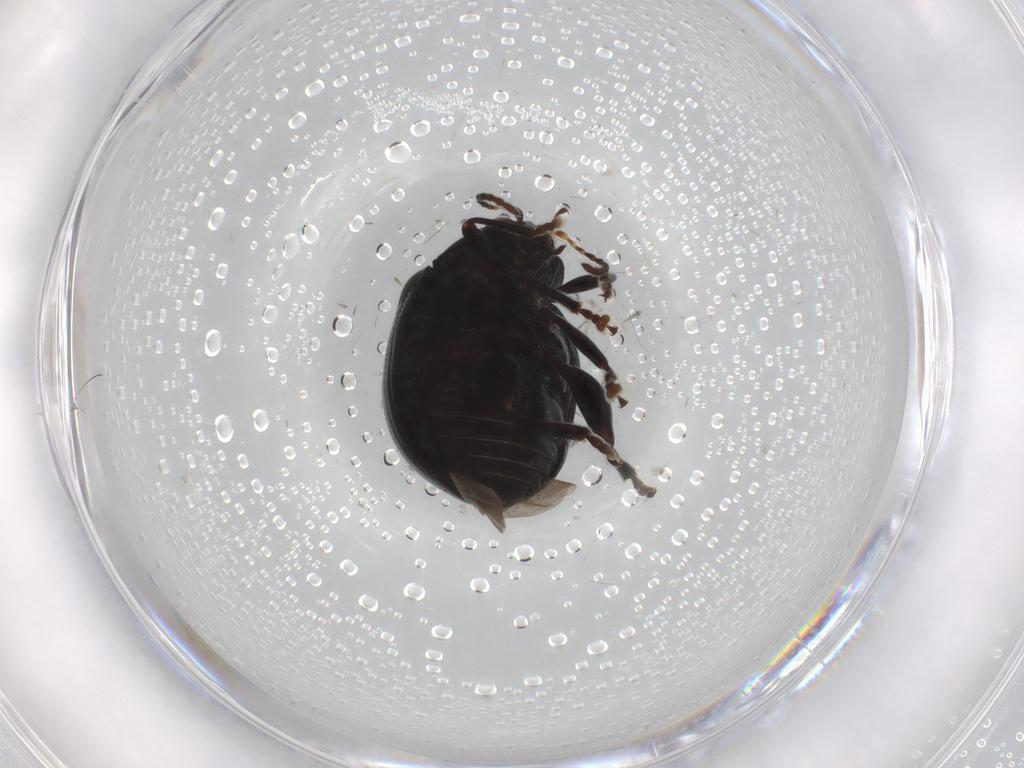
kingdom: Animalia
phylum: Arthropoda
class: Insecta
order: Coleoptera
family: Chrysomelidae
